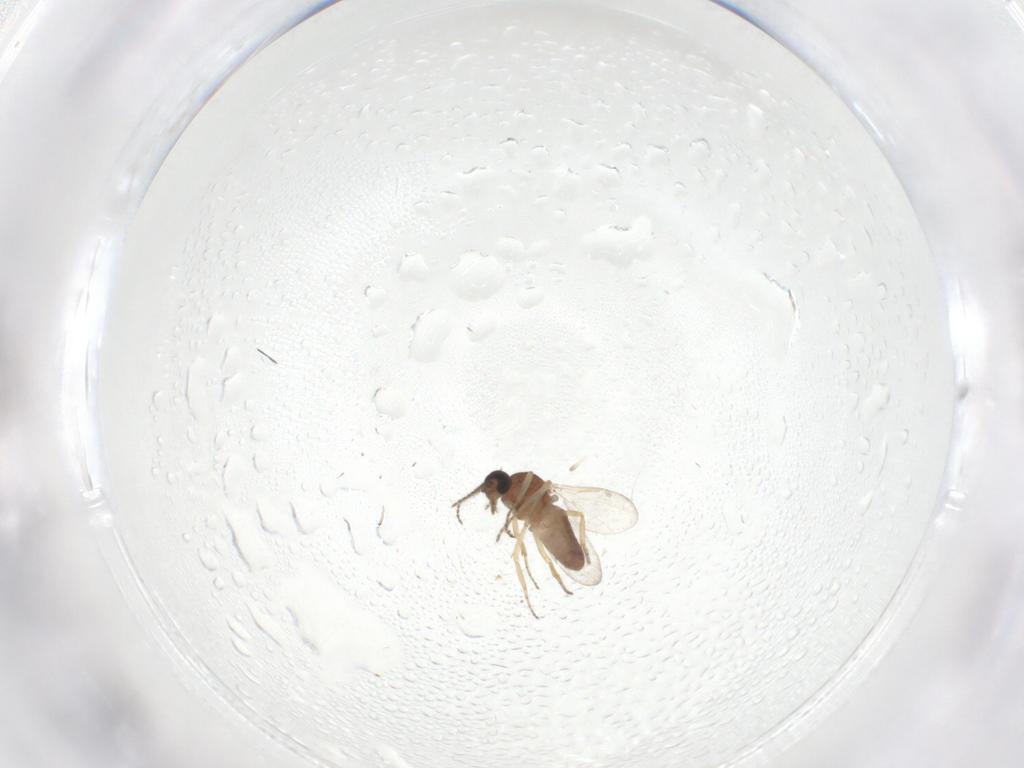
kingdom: Animalia
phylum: Arthropoda
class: Insecta
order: Diptera
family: Ceratopogonidae
